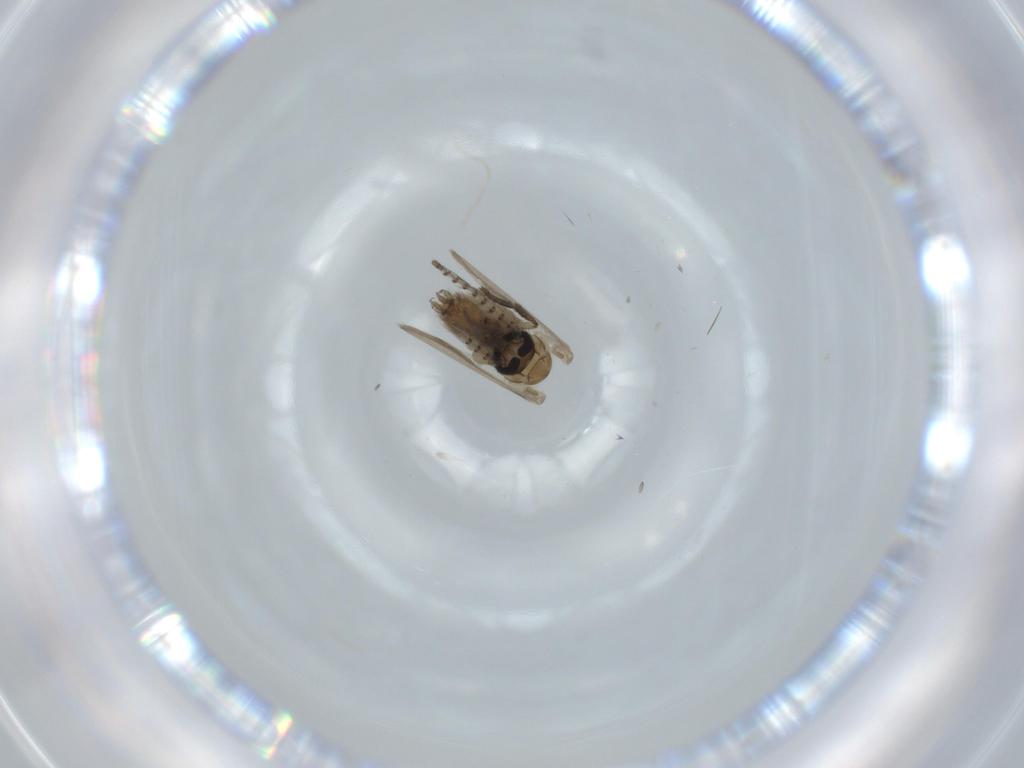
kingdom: Animalia
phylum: Arthropoda
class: Insecta
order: Diptera
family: Psychodidae
